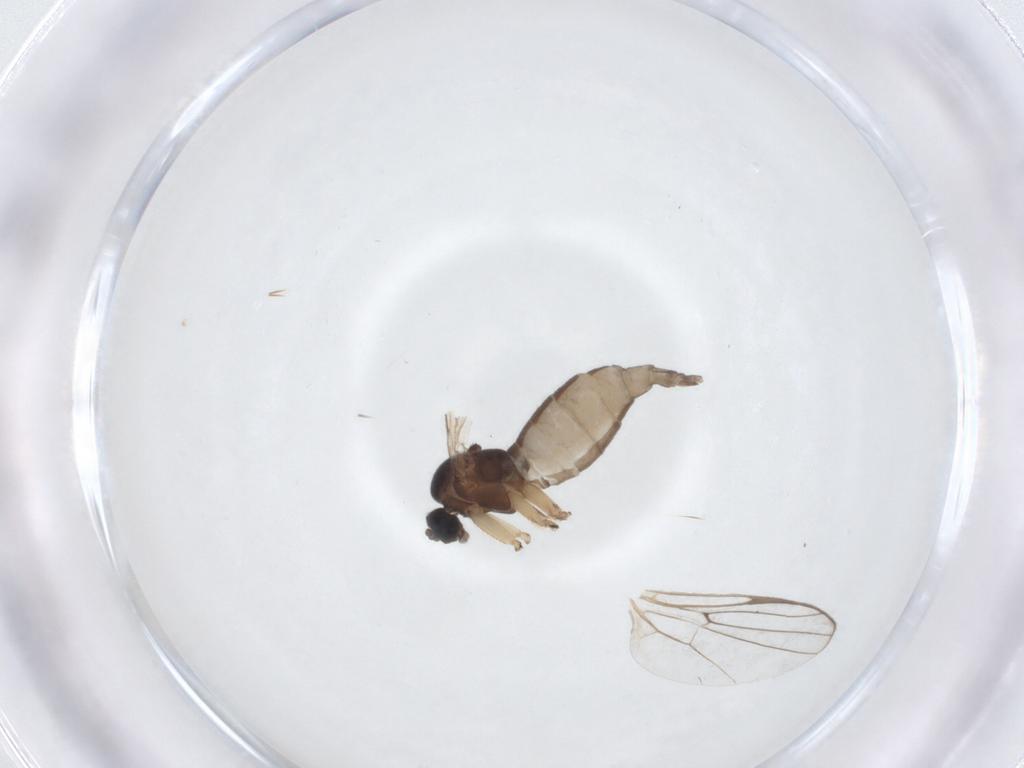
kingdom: Animalia
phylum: Arthropoda
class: Insecta
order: Diptera
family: Sciaridae
